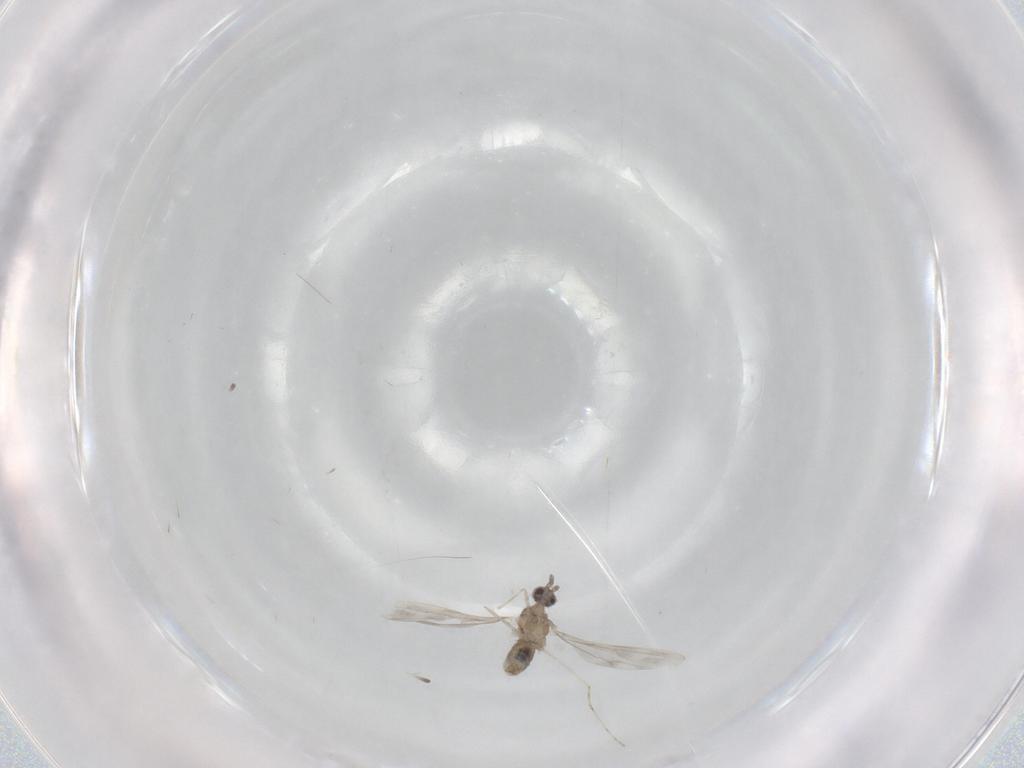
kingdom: Animalia
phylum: Arthropoda
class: Insecta
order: Diptera
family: Cecidomyiidae
